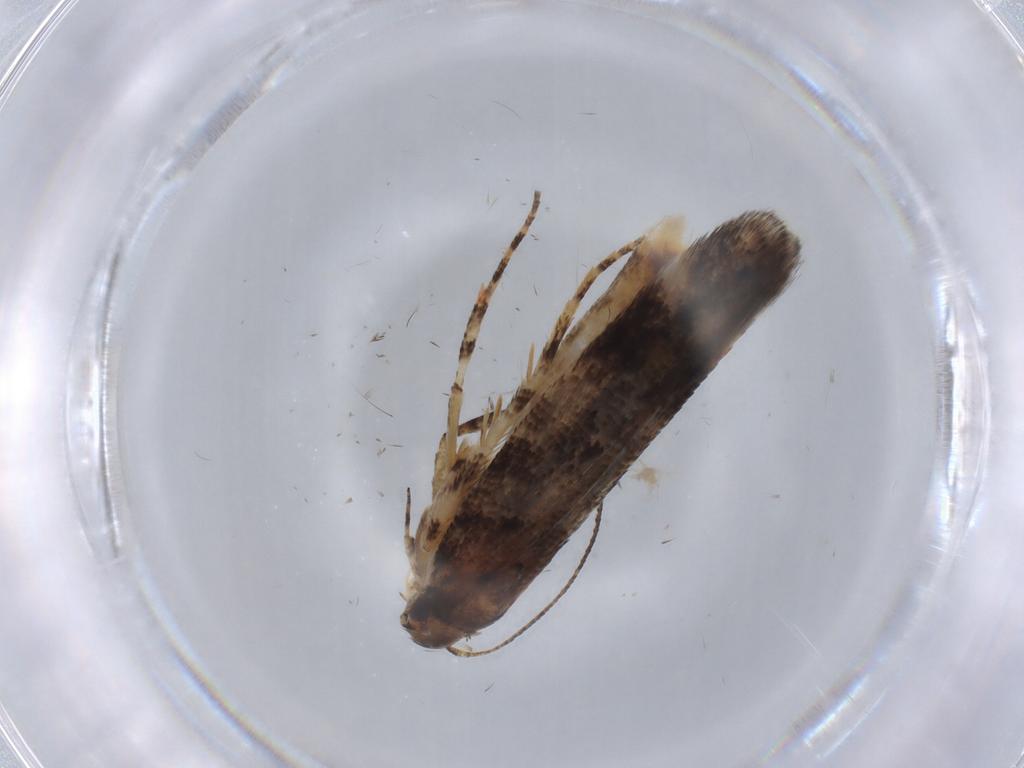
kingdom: Animalia
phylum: Arthropoda
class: Insecta
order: Lepidoptera
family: Gelechiidae
